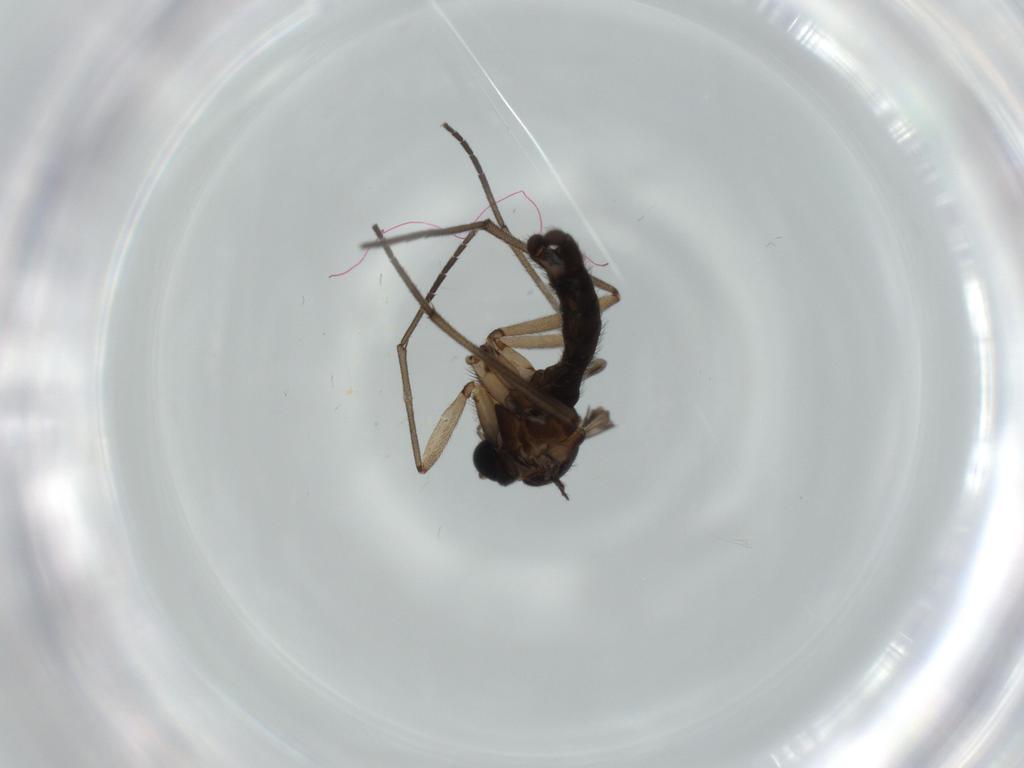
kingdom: Animalia
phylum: Arthropoda
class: Insecta
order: Diptera
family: Sciaridae
